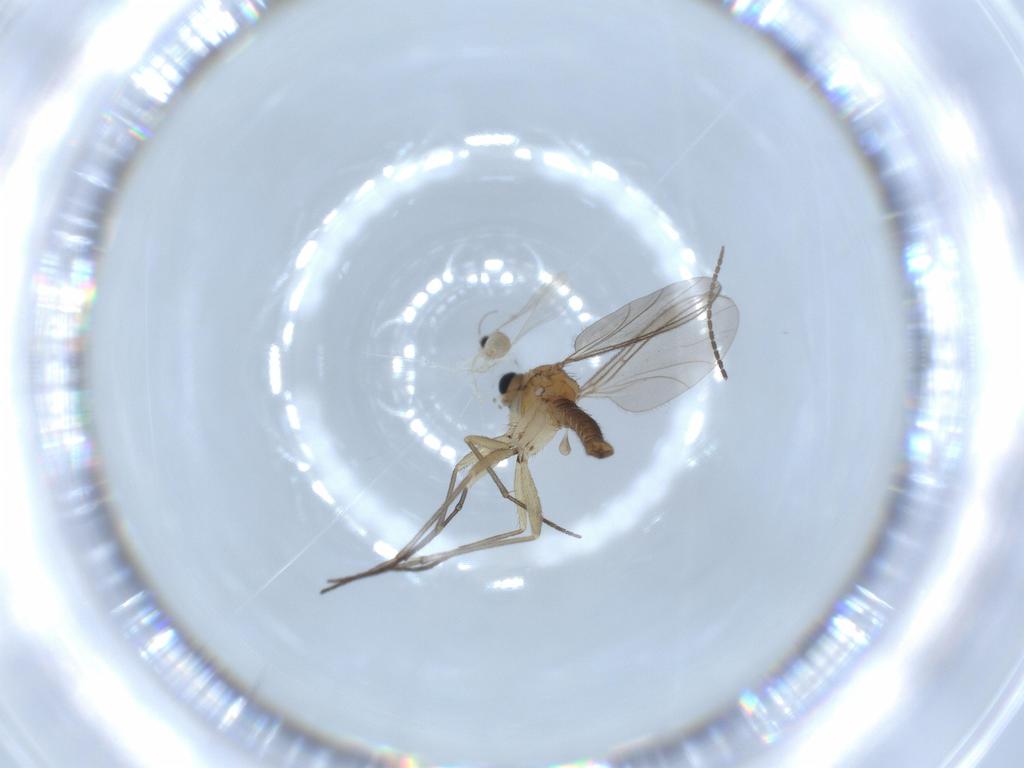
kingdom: Animalia
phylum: Arthropoda
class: Insecta
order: Diptera
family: Sciaridae
